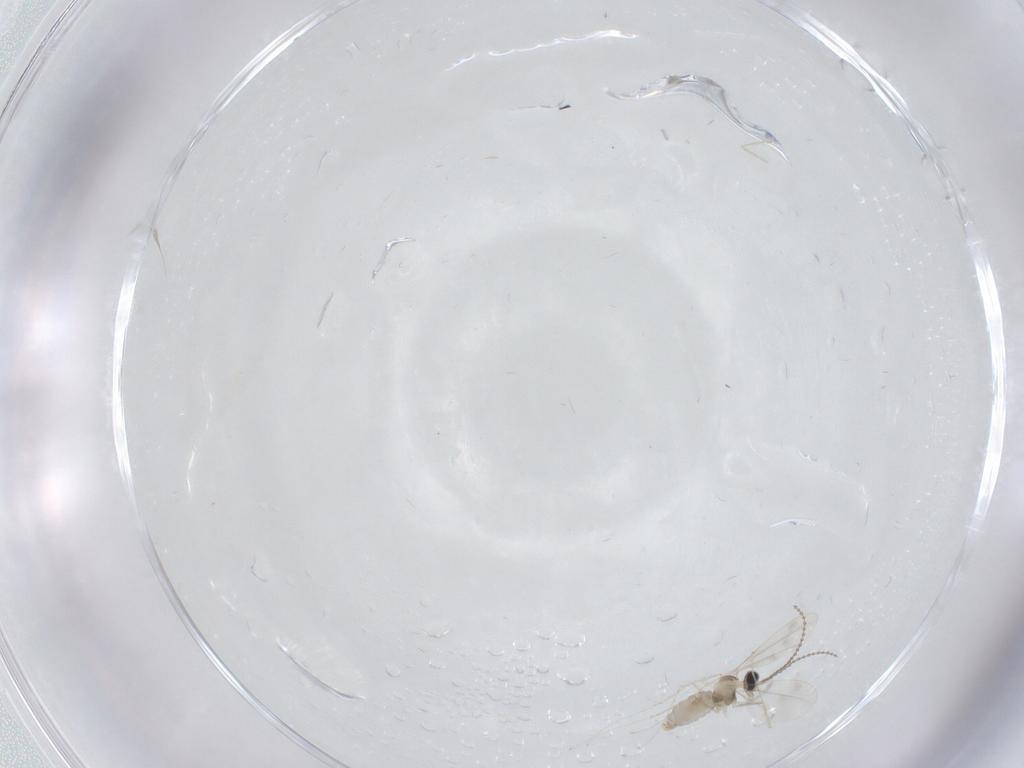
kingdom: Animalia
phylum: Arthropoda
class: Insecta
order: Diptera
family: Cecidomyiidae
